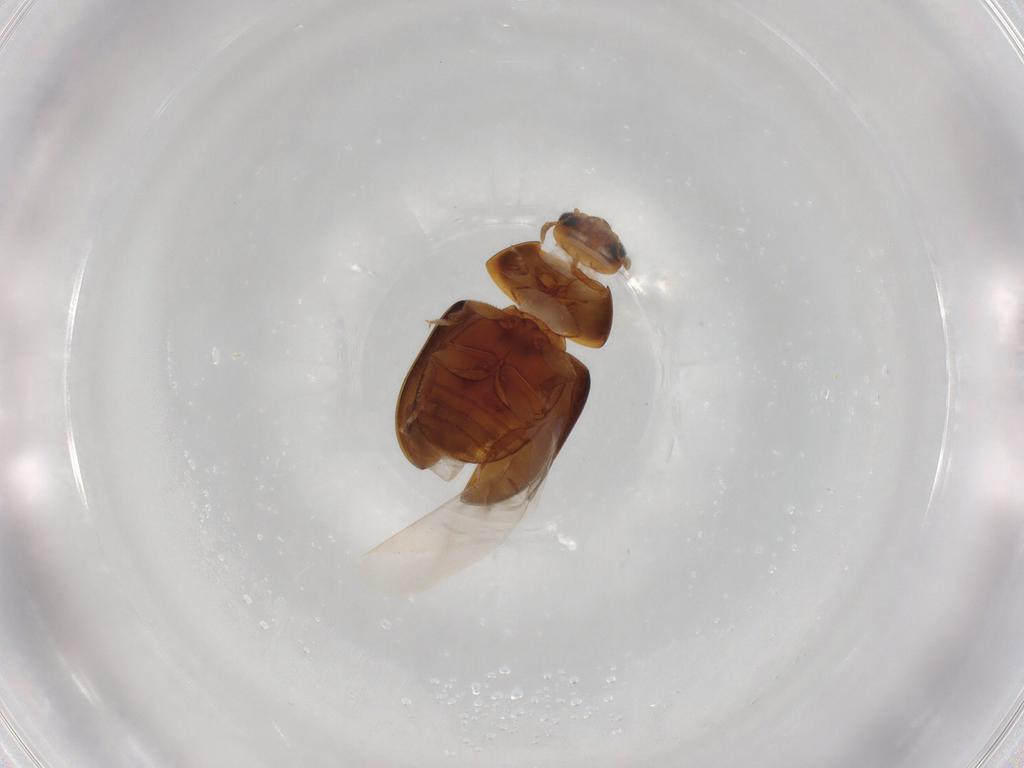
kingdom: Animalia
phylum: Arthropoda
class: Insecta
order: Coleoptera
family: Phalacridae
